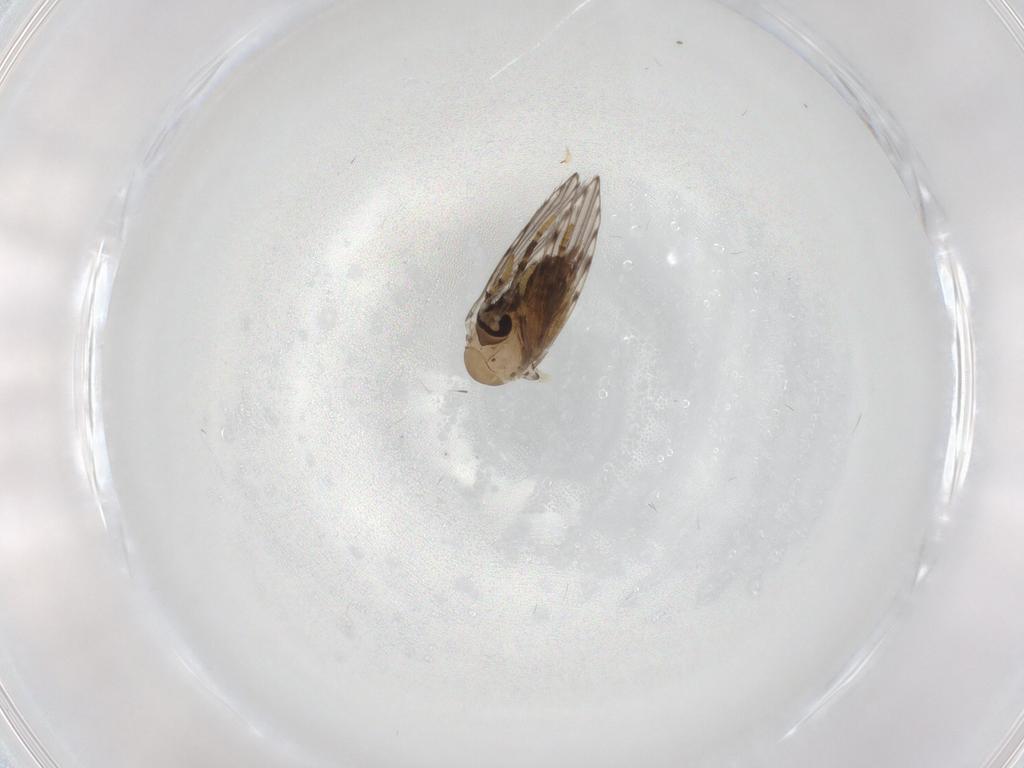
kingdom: Animalia
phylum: Arthropoda
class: Insecta
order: Diptera
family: Psychodidae
